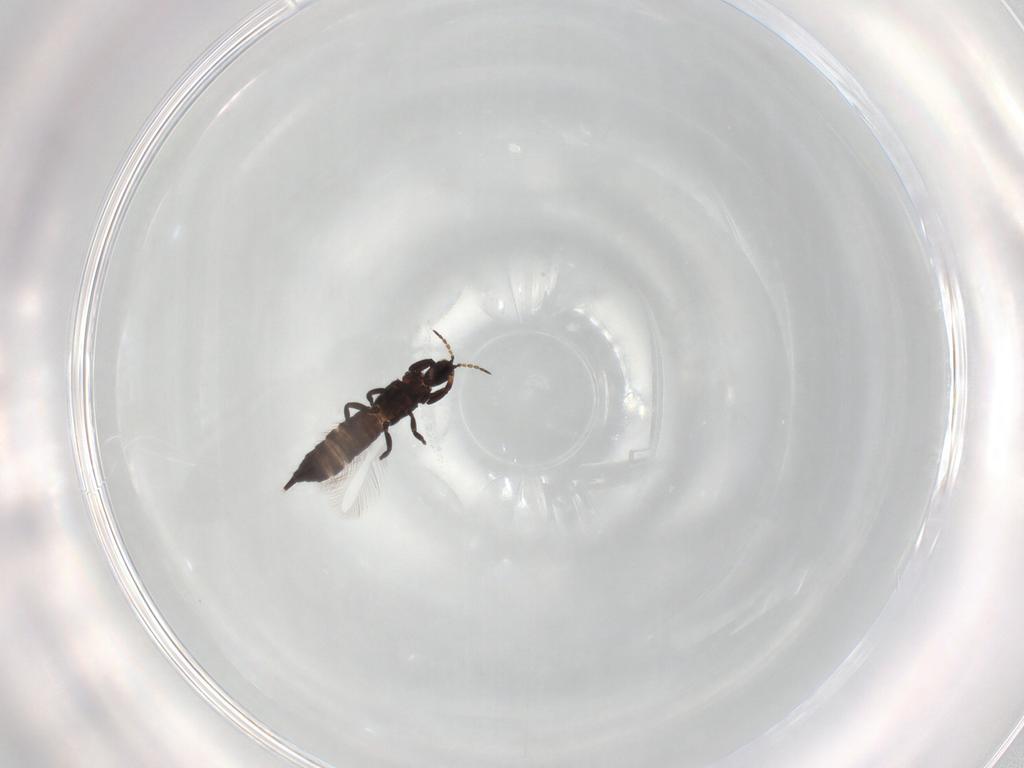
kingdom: Animalia
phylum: Arthropoda
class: Insecta
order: Diptera
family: Chironomidae
